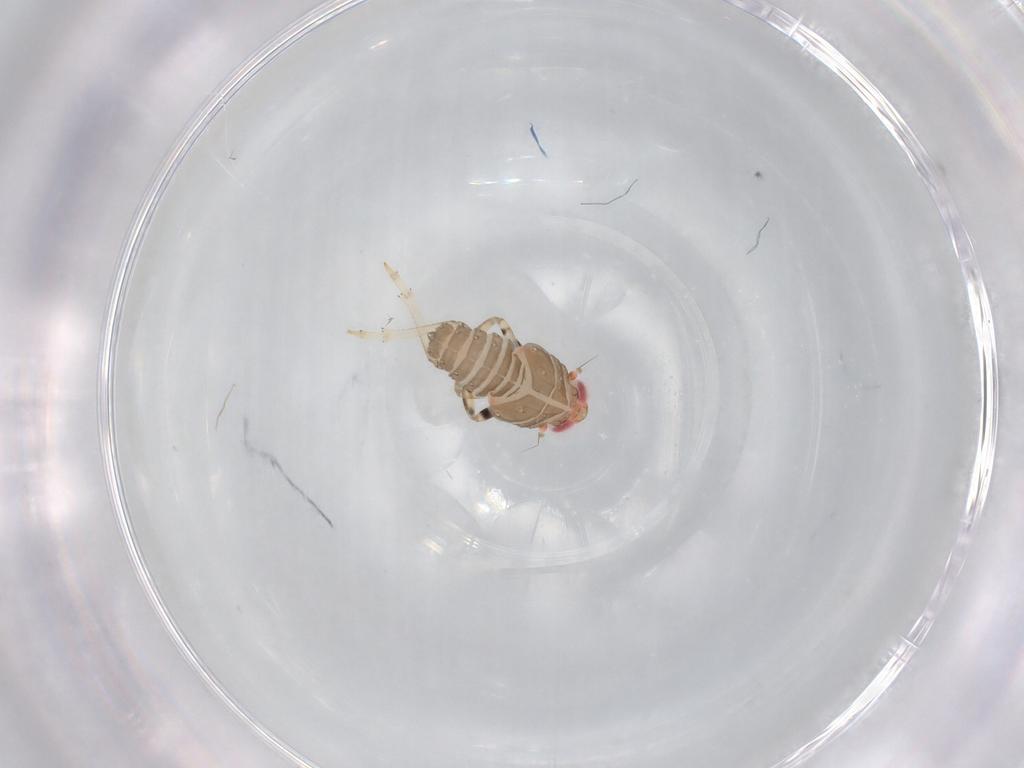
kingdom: Animalia
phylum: Arthropoda
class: Insecta
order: Hemiptera
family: Issidae
